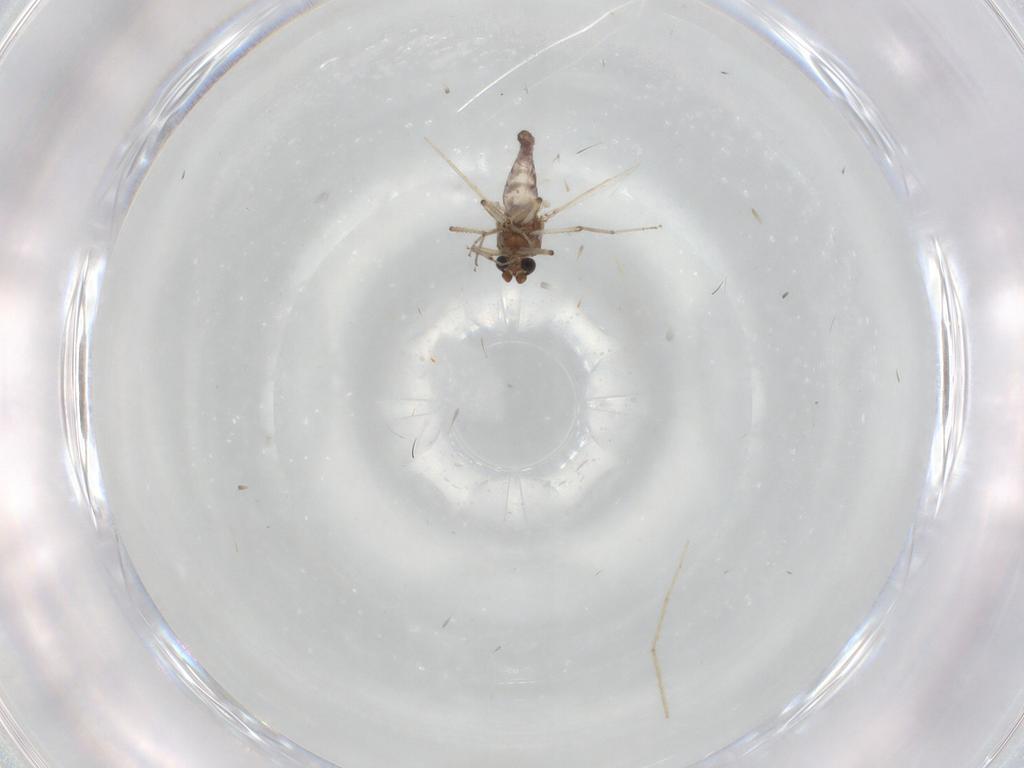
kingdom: Animalia
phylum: Arthropoda
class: Insecta
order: Diptera
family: Ceratopogonidae
